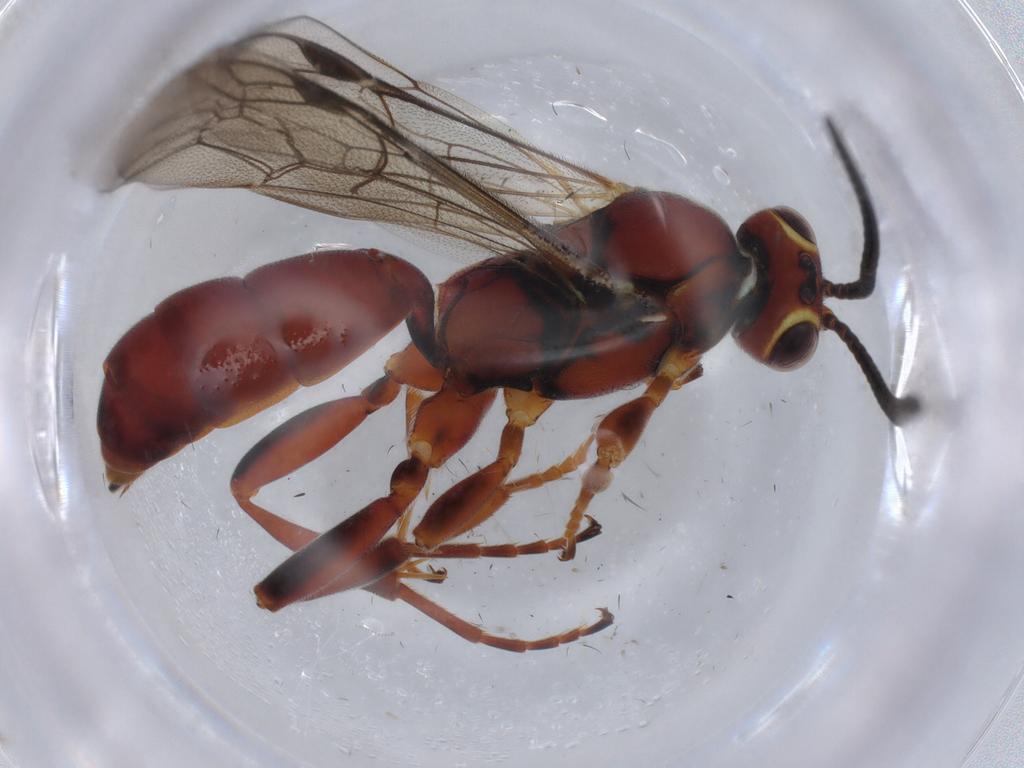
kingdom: Animalia
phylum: Arthropoda
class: Insecta
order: Hymenoptera
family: Ichneumonidae
